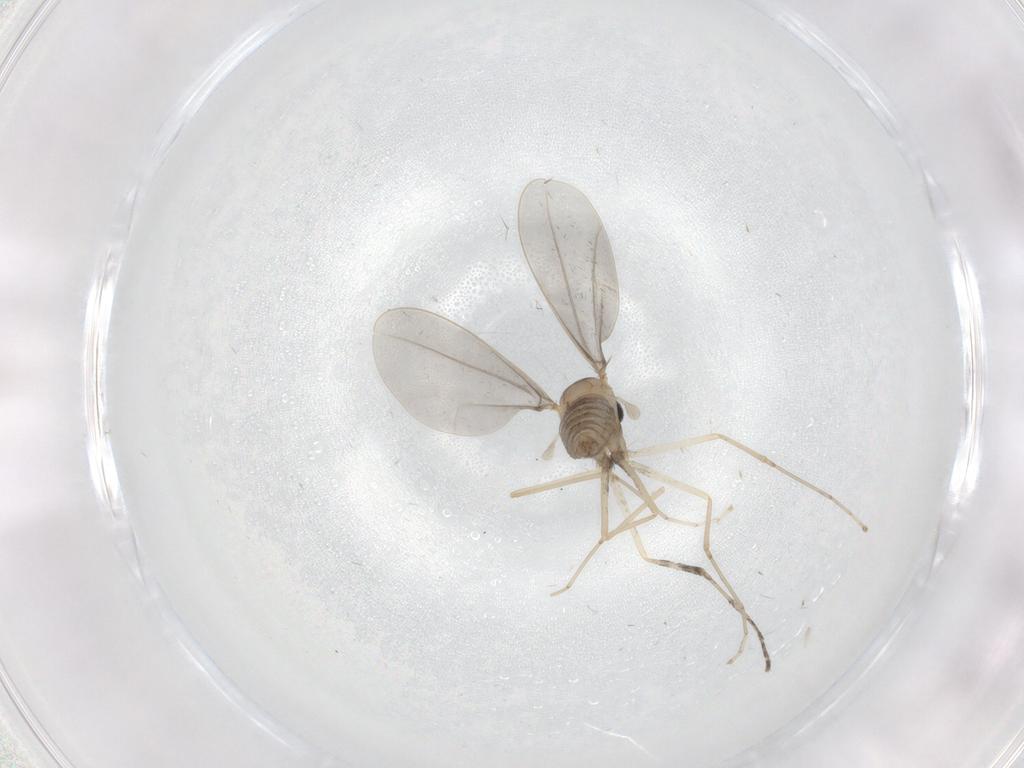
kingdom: Animalia
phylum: Arthropoda
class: Insecta
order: Diptera
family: Cecidomyiidae
